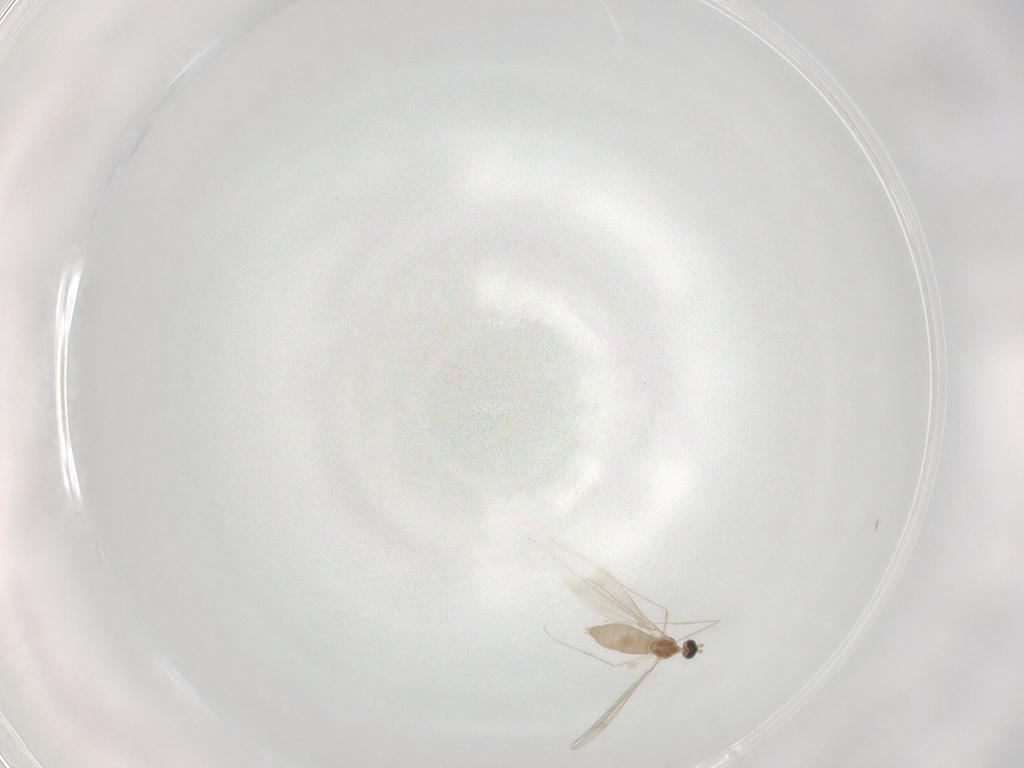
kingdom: Animalia
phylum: Arthropoda
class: Insecta
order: Diptera
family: Cecidomyiidae
